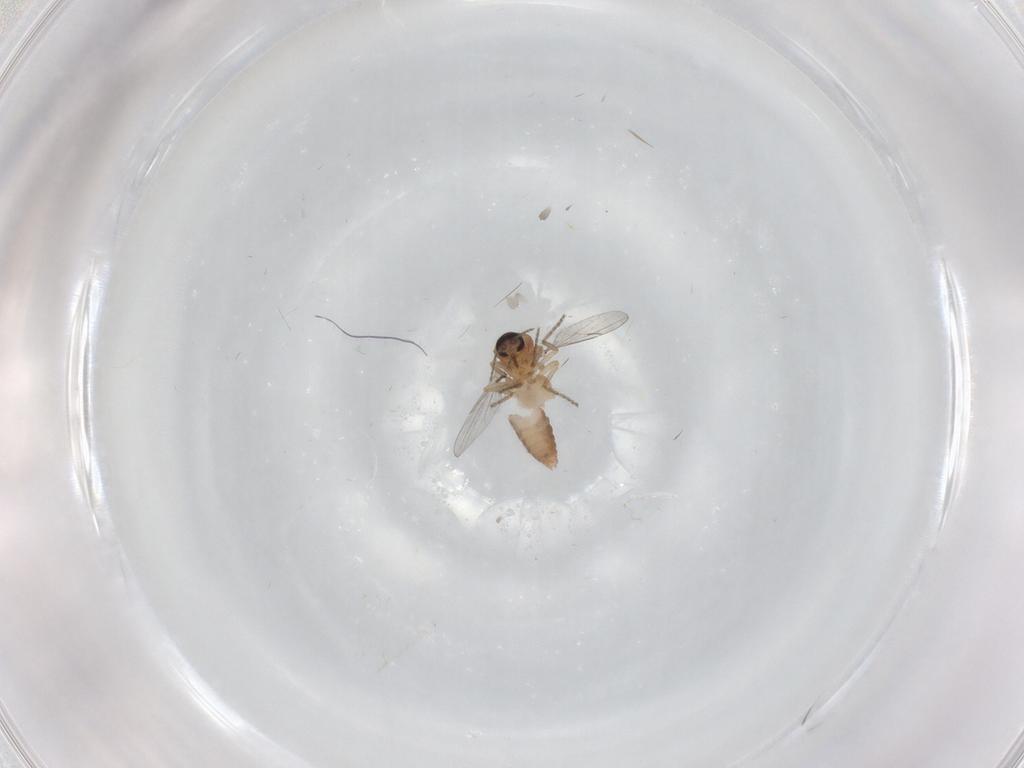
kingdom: Animalia
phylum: Arthropoda
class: Insecta
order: Diptera
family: Ceratopogonidae
